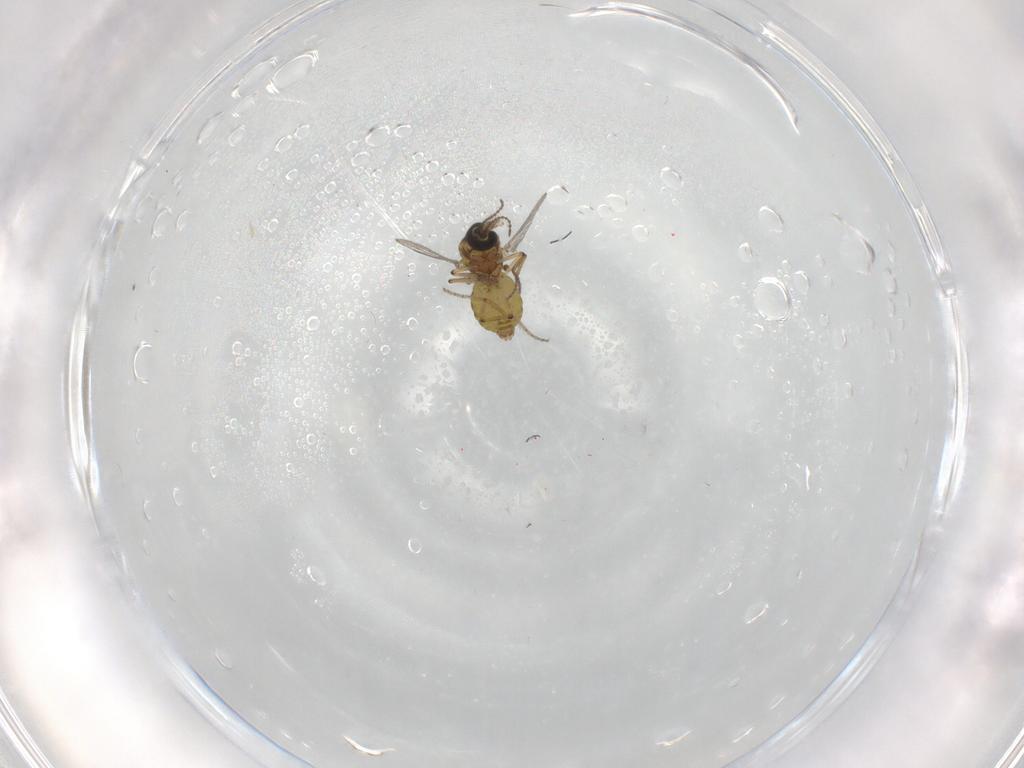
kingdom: Animalia
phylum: Arthropoda
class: Insecta
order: Diptera
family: Ceratopogonidae
